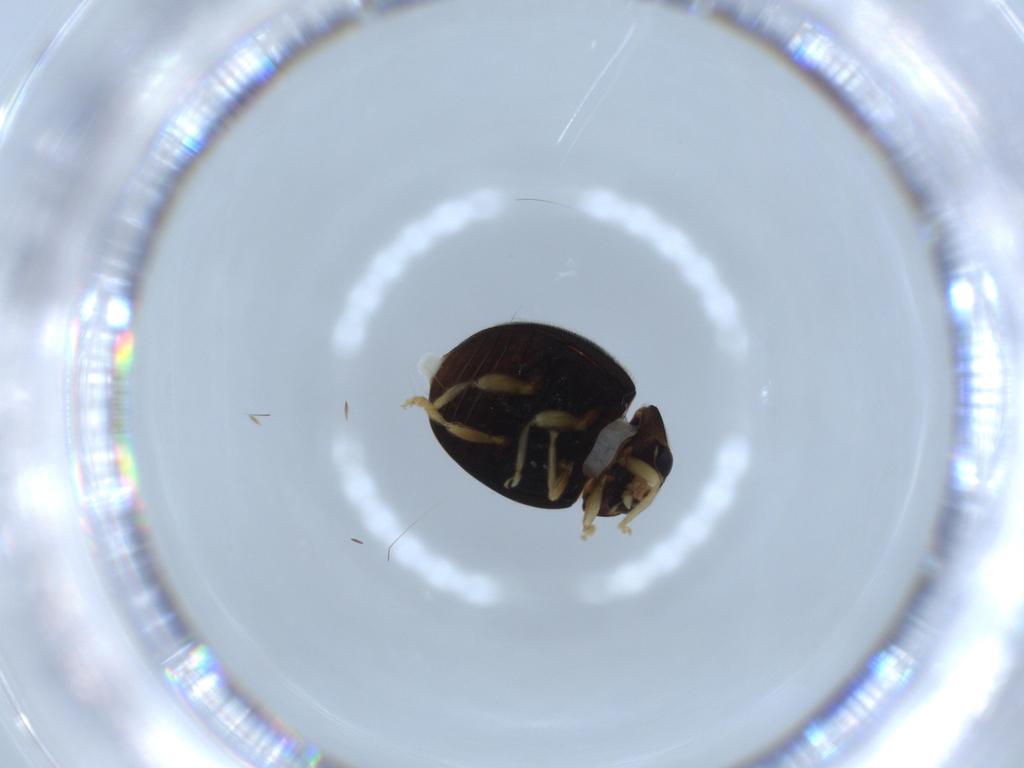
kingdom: Animalia
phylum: Arthropoda
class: Insecta
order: Coleoptera
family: Coccinellidae
